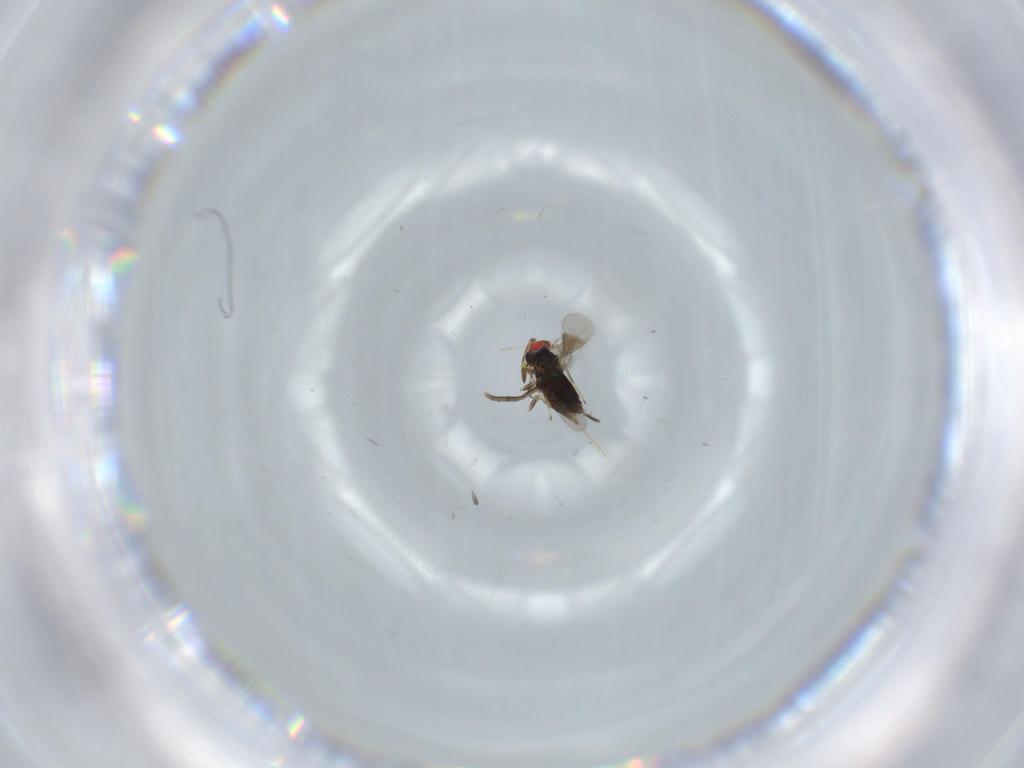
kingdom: Animalia
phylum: Arthropoda
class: Insecta
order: Hymenoptera
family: Azotidae
